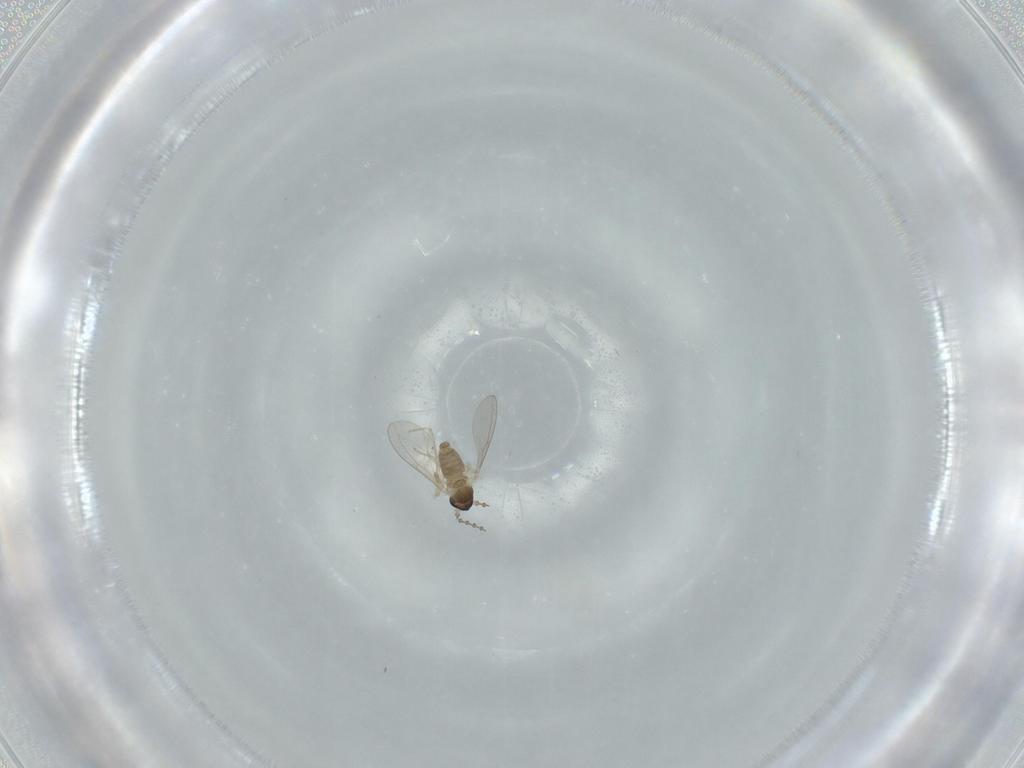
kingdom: Animalia
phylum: Arthropoda
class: Insecta
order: Diptera
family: Cecidomyiidae
